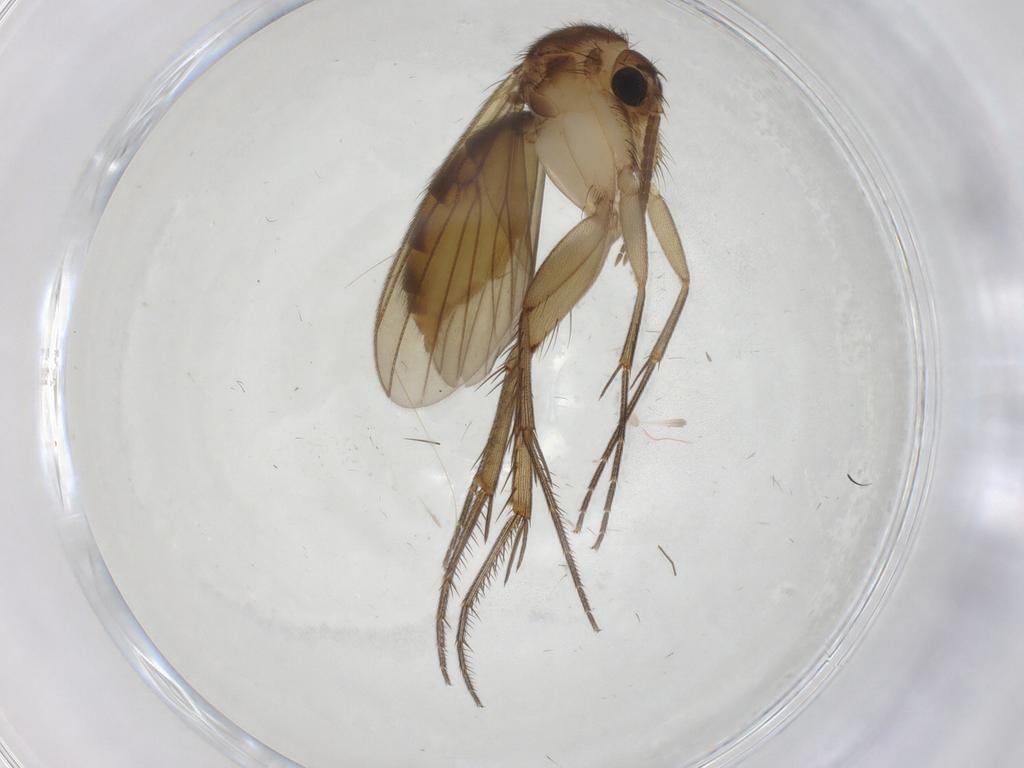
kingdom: Animalia
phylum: Arthropoda
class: Insecta
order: Diptera
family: Mycetophilidae
